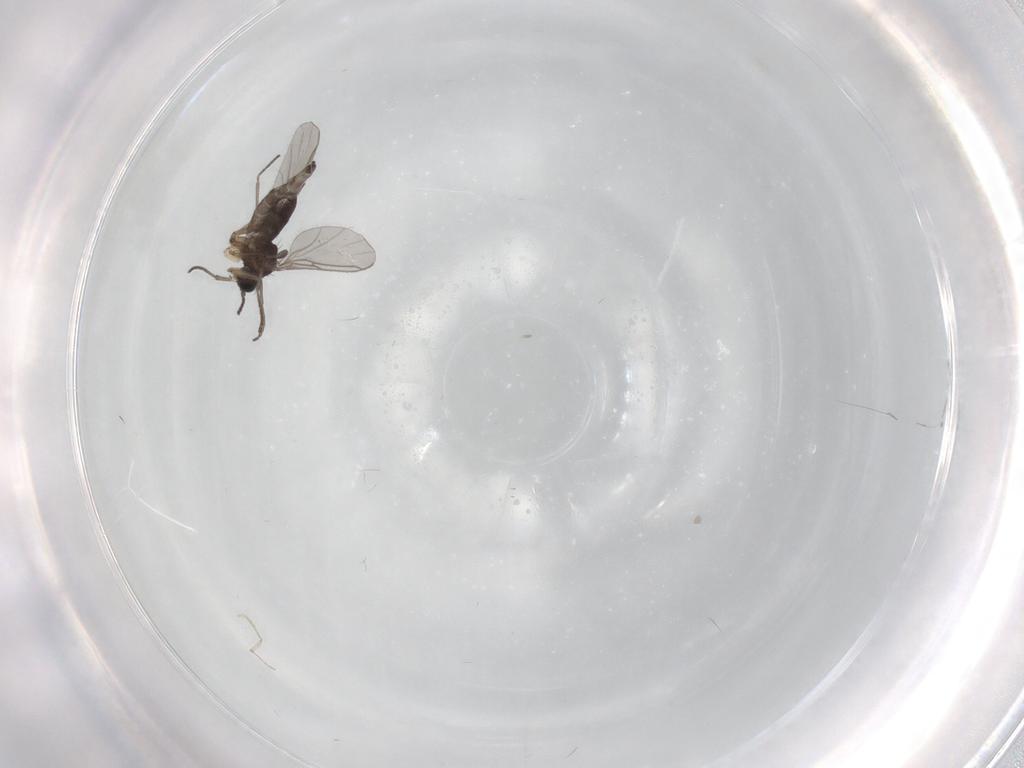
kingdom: Animalia
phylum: Arthropoda
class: Insecta
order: Diptera
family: Sciaridae
